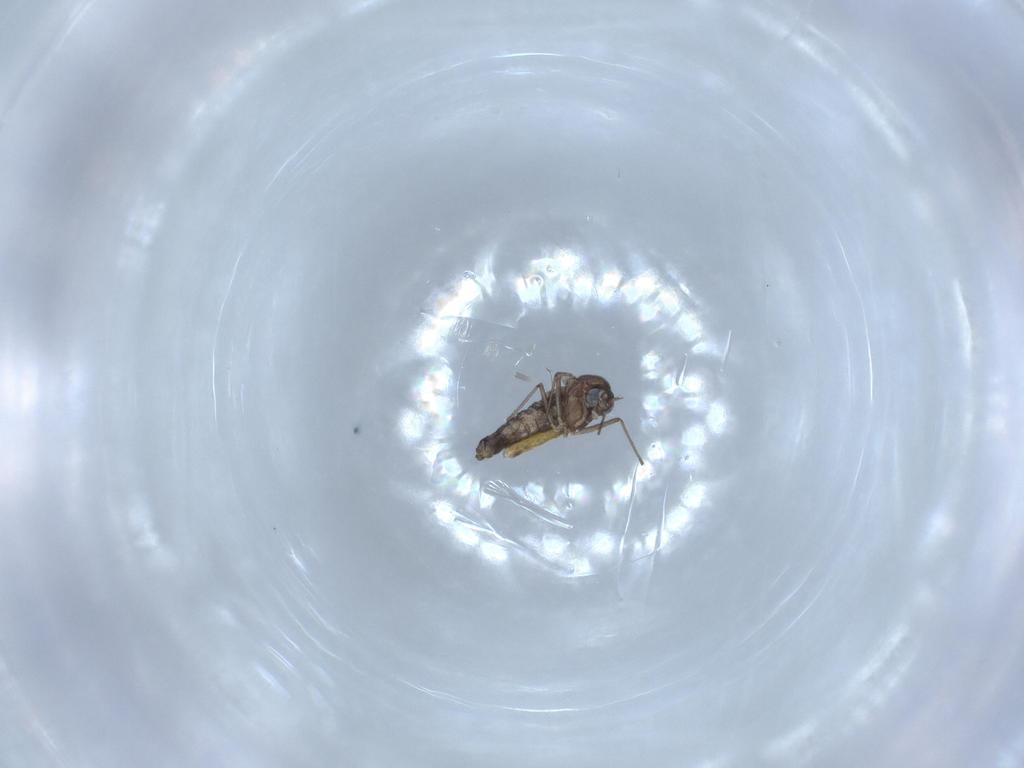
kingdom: Animalia
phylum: Arthropoda
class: Insecta
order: Diptera
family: Chironomidae
